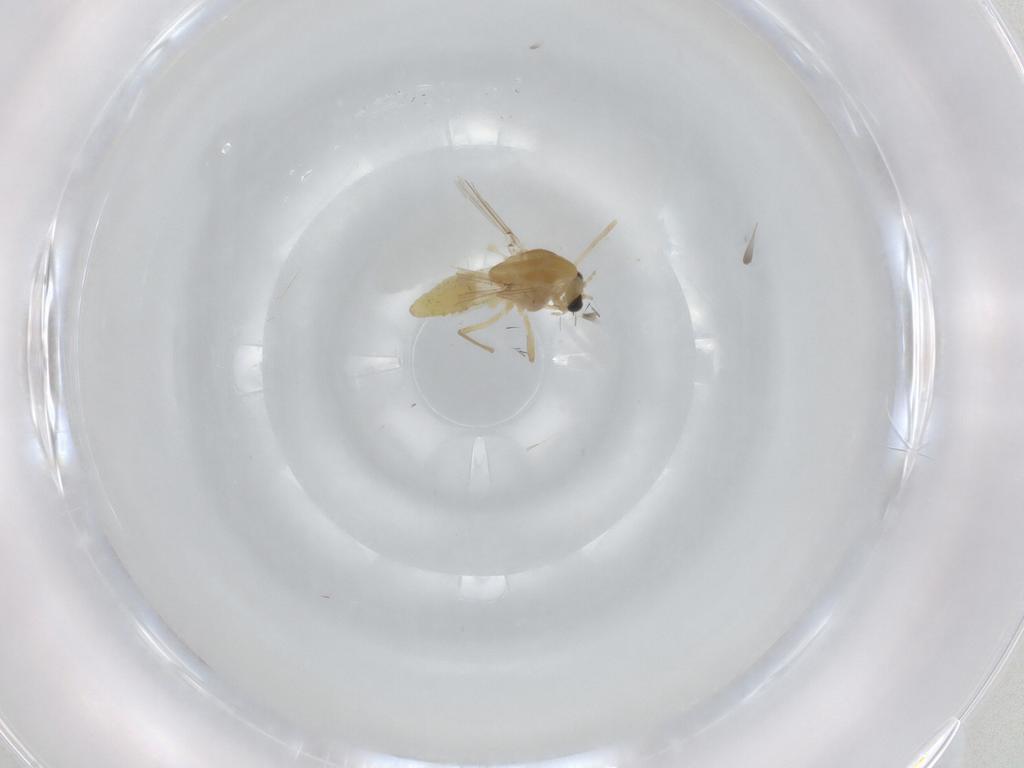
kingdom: Animalia
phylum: Arthropoda
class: Insecta
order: Diptera
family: Chironomidae
